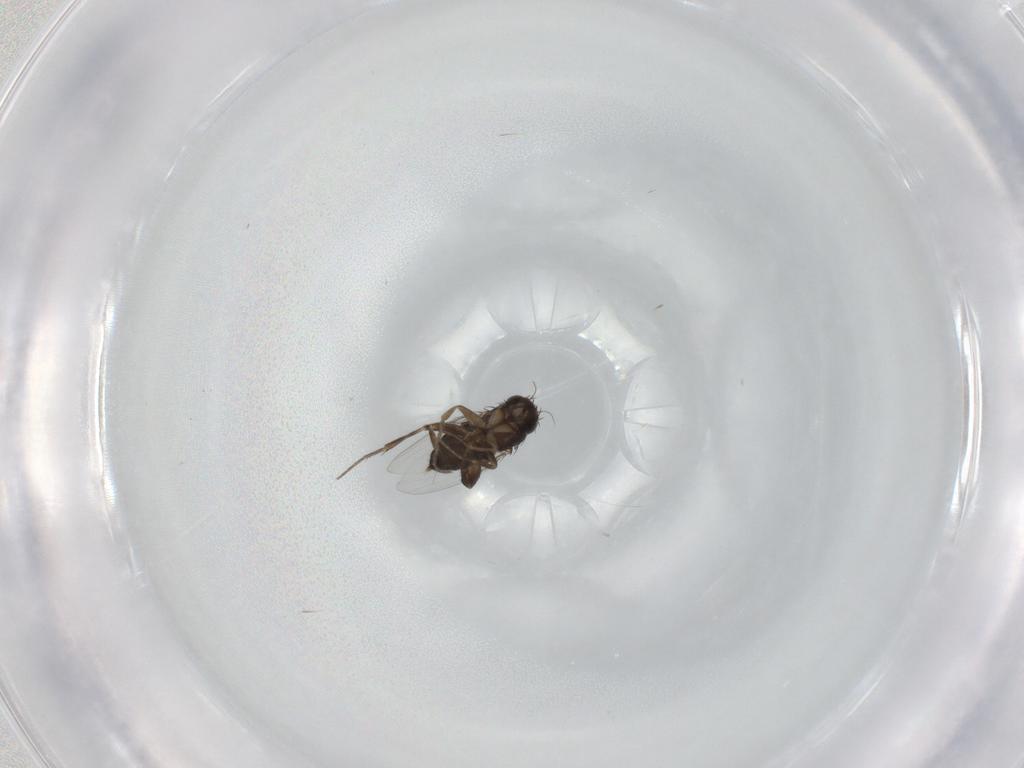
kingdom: Animalia
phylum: Arthropoda
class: Insecta
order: Diptera
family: Phoridae
